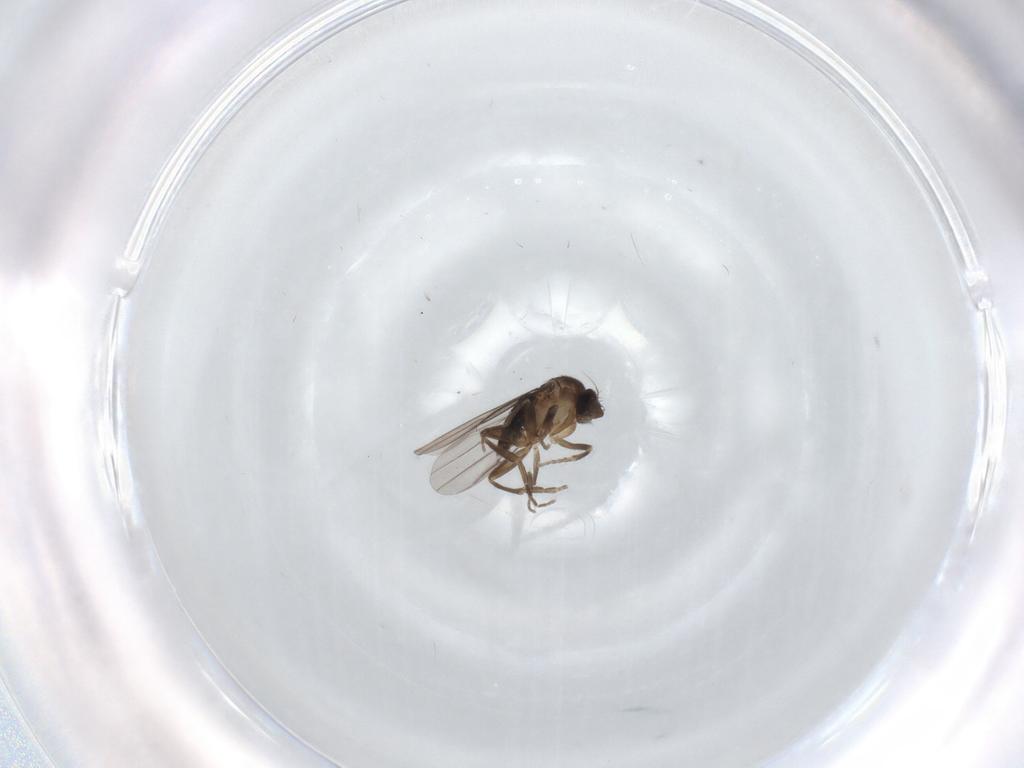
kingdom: Animalia
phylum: Arthropoda
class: Insecta
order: Diptera
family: Phoridae
